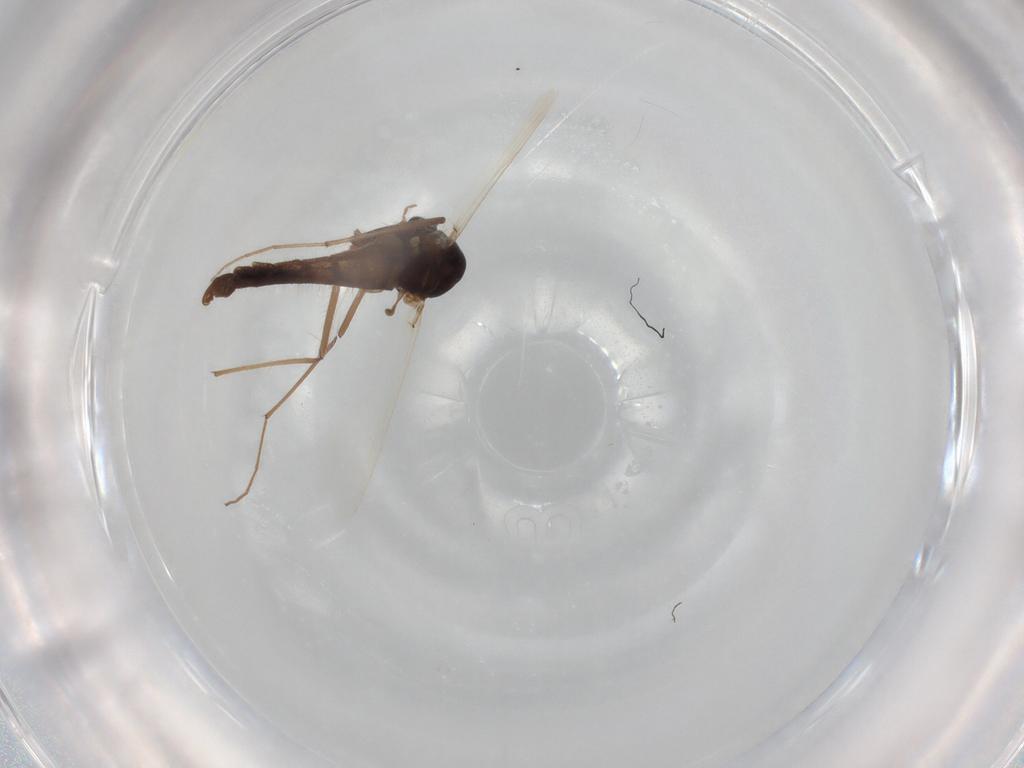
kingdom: Animalia
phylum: Arthropoda
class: Insecta
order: Diptera
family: Chironomidae
